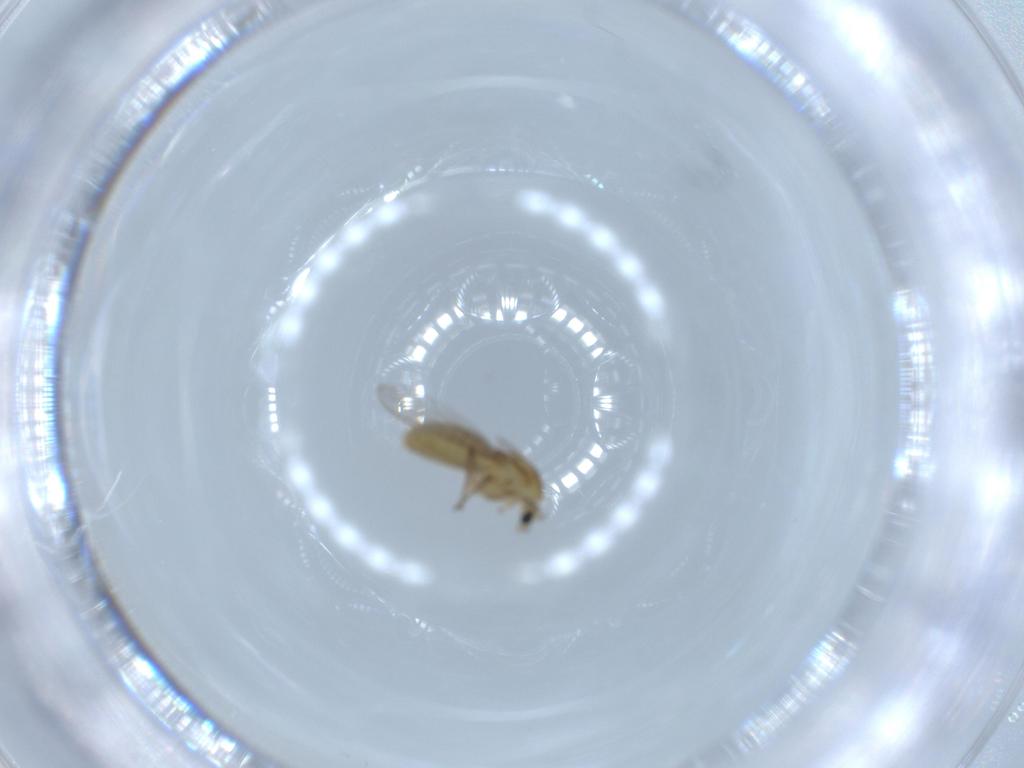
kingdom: Animalia
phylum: Arthropoda
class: Insecta
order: Diptera
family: Chironomidae
